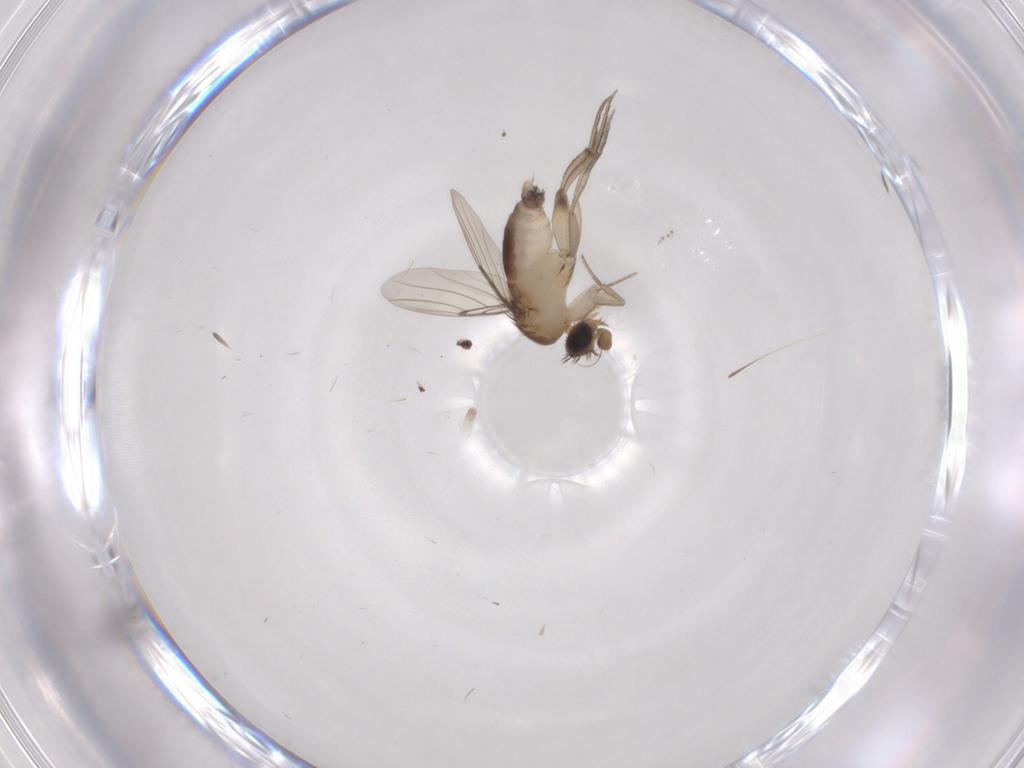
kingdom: Animalia
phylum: Arthropoda
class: Insecta
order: Diptera
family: Phoridae
